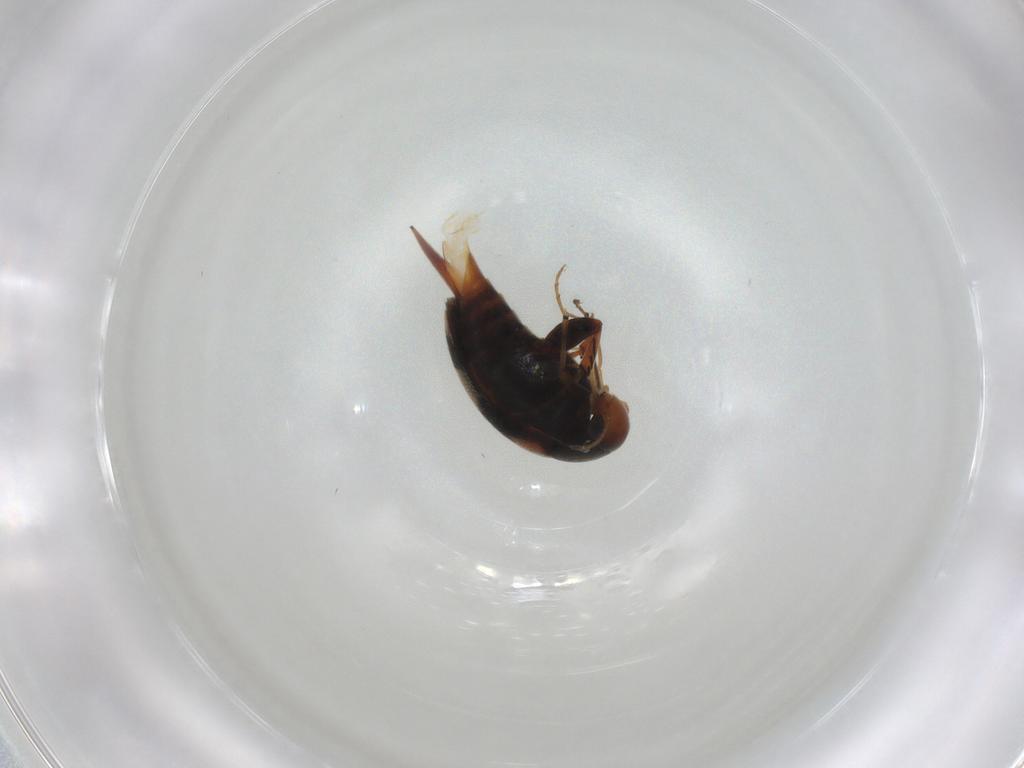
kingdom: Animalia
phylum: Arthropoda
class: Insecta
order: Coleoptera
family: Mordellidae
